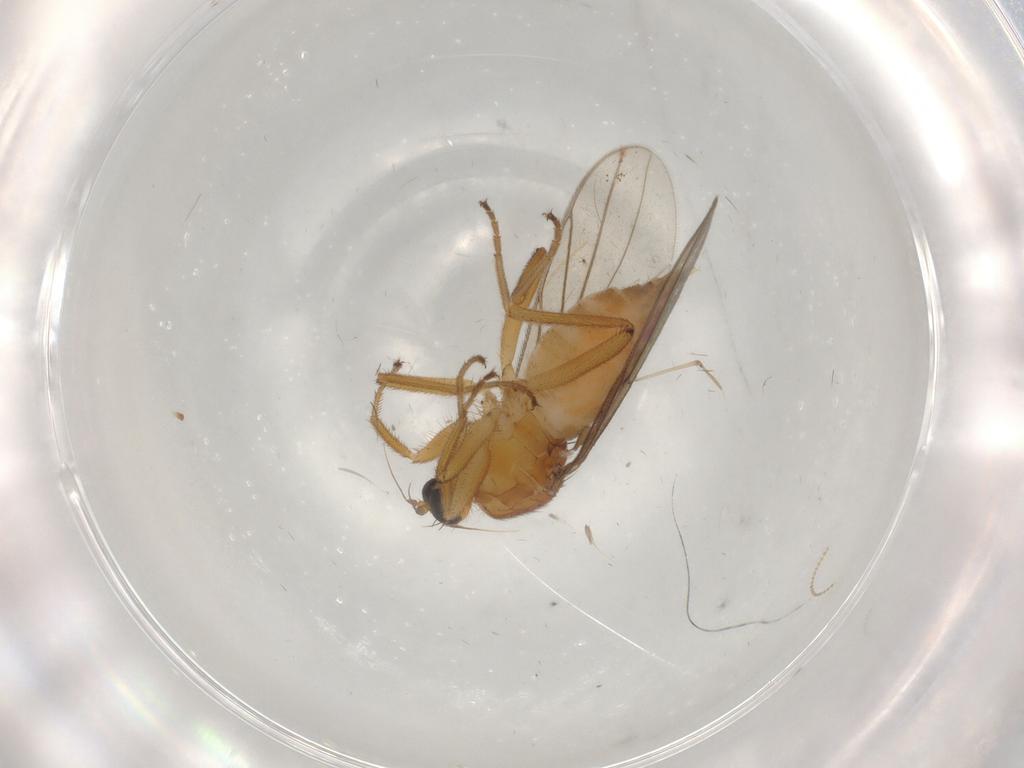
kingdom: Animalia
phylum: Arthropoda
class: Insecta
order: Diptera
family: Hybotidae
